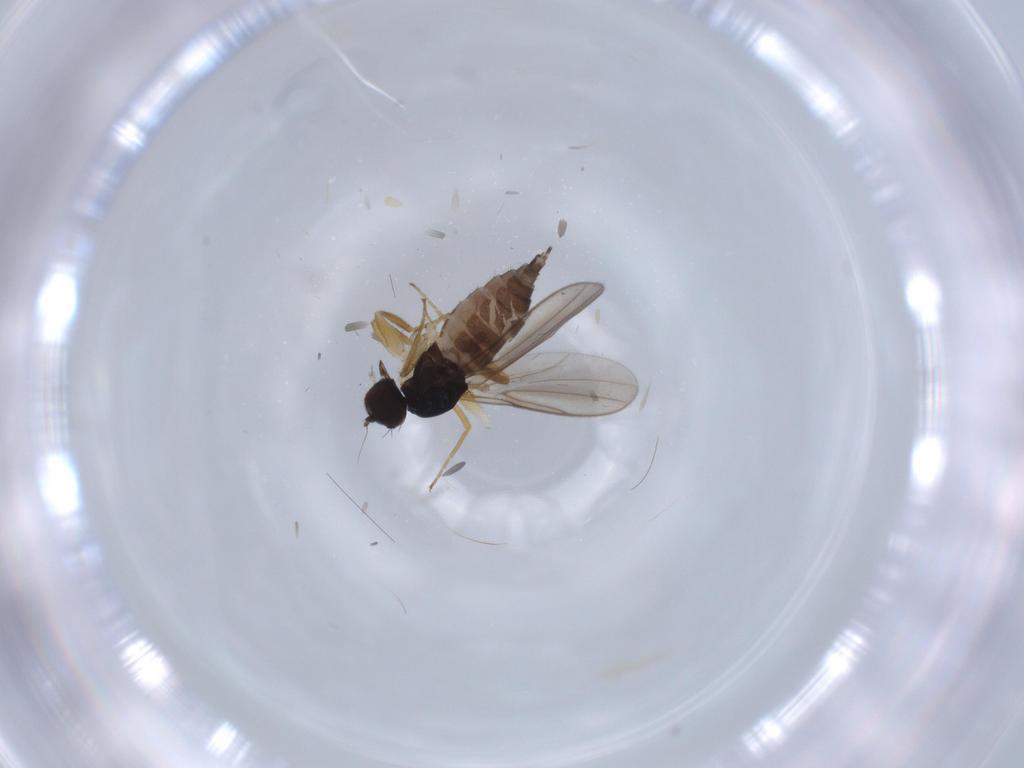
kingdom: Animalia
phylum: Arthropoda
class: Insecta
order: Diptera
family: Hybotidae
